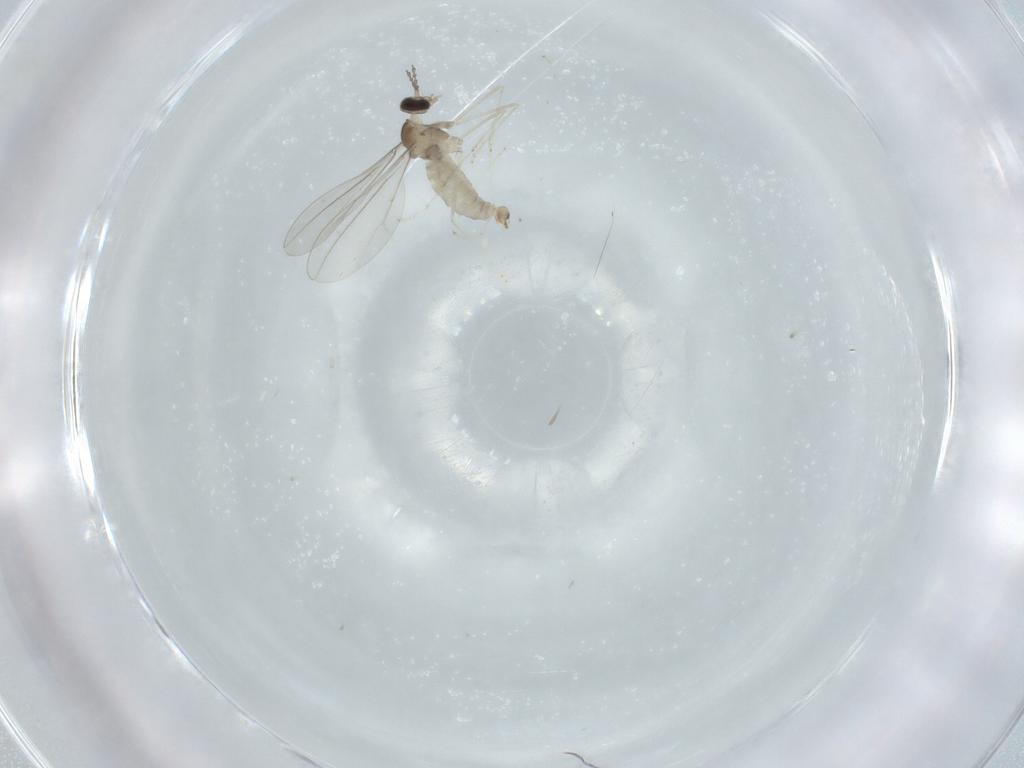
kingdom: Animalia
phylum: Arthropoda
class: Insecta
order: Diptera
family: Cecidomyiidae
